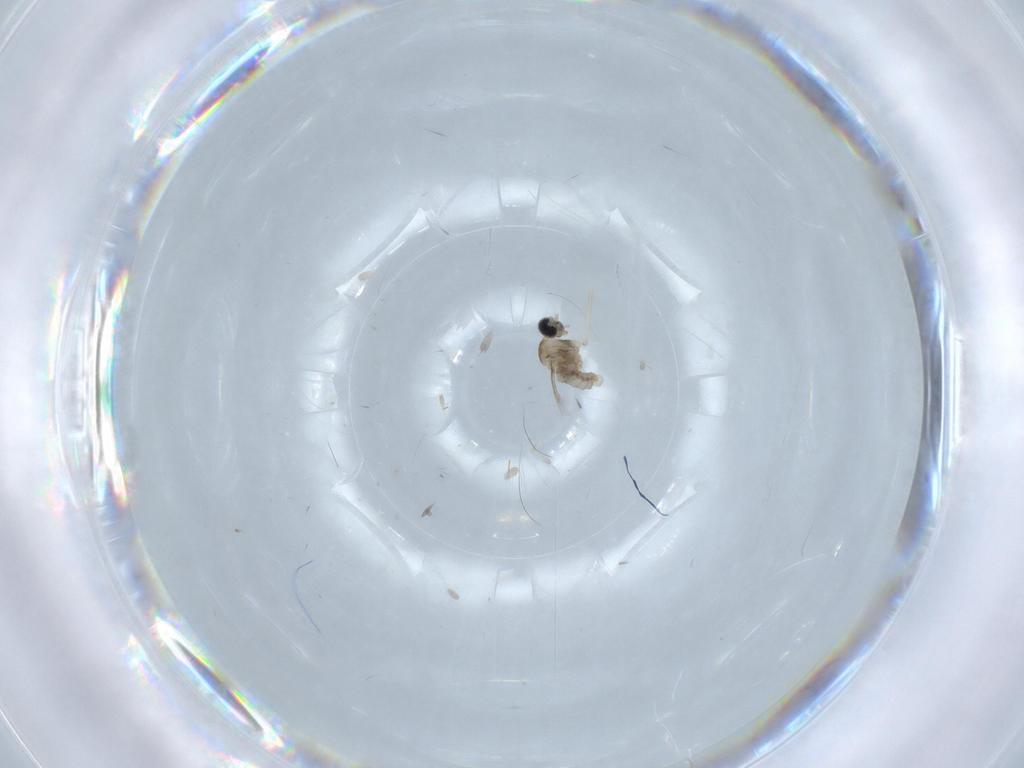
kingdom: Animalia
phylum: Arthropoda
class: Insecta
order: Diptera
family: Cecidomyiidae
